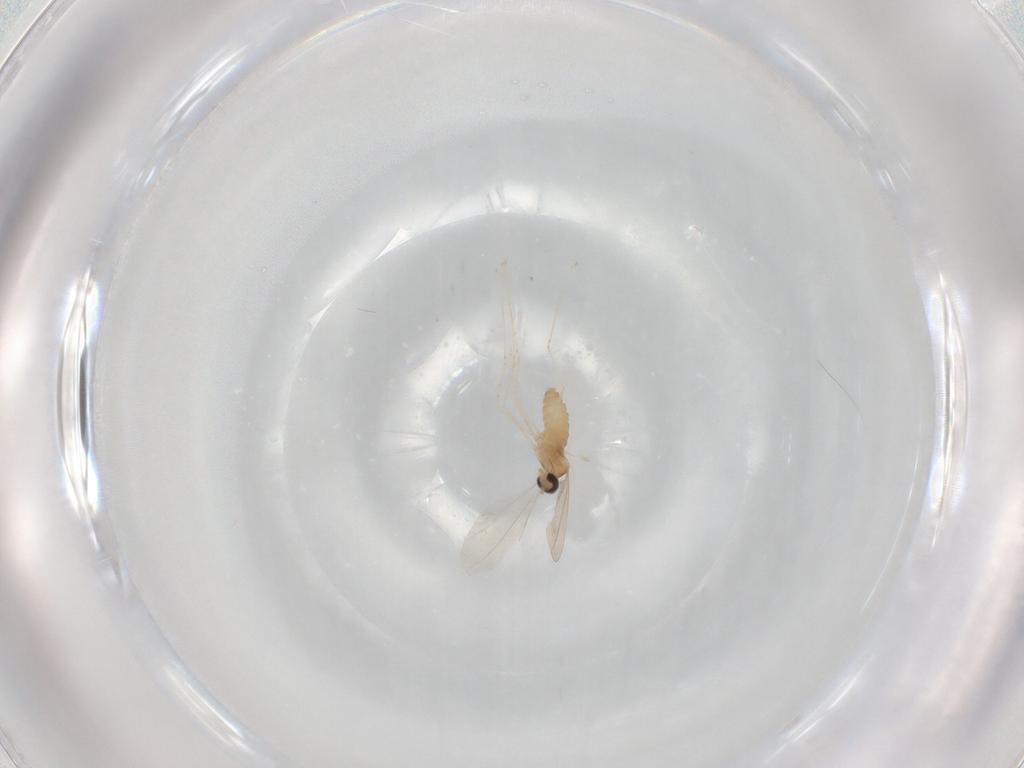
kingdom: Animalia
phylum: Arthropoda
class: Insecta
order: Diptera
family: Cecidomyiidae
